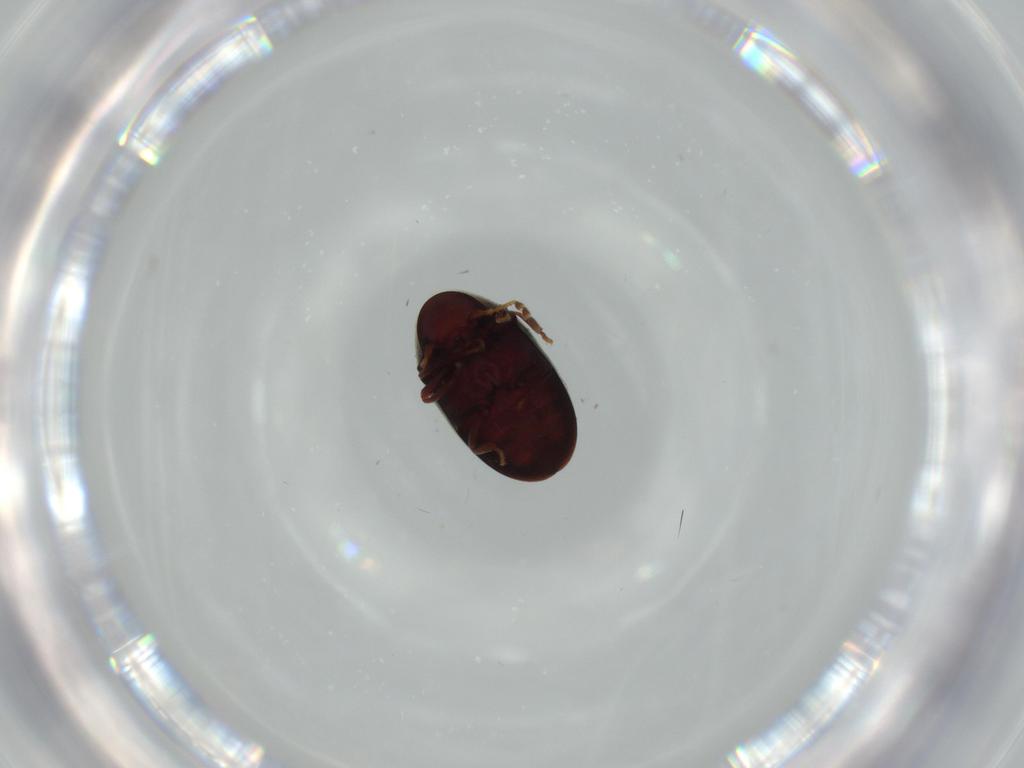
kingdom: Animalia
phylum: Arthropoda
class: Insecta
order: Coleoptera
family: Ptinidae
